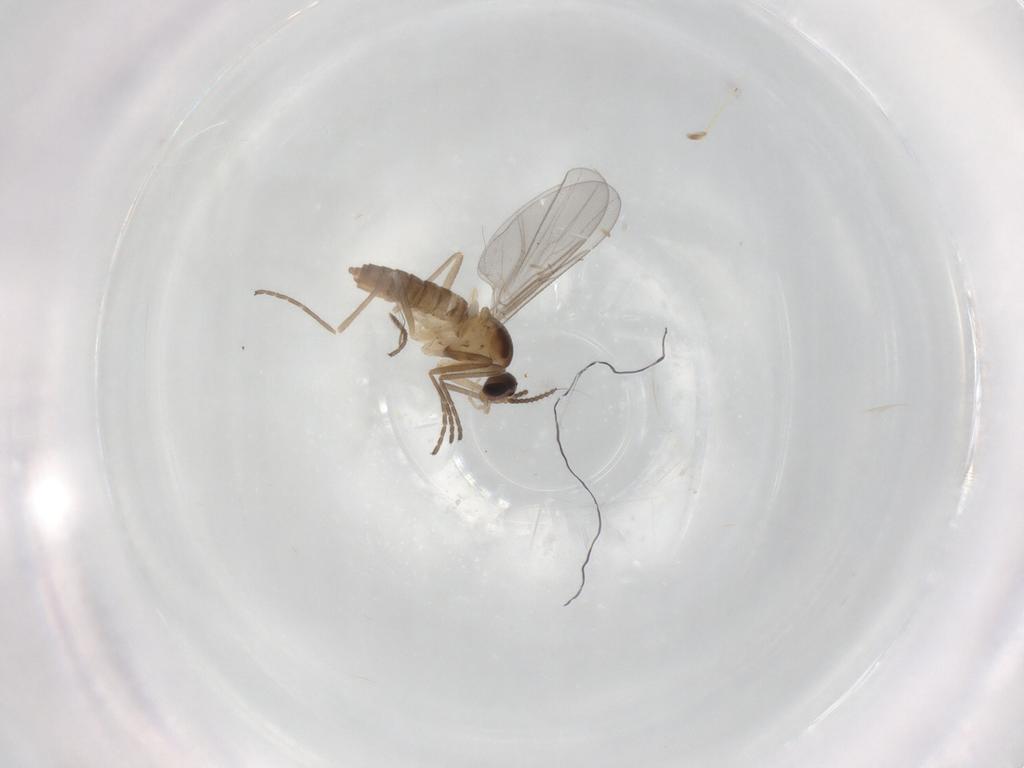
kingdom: Animalia
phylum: Arthropoda
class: Insecta
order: Diptera
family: Cecidomyiidae
